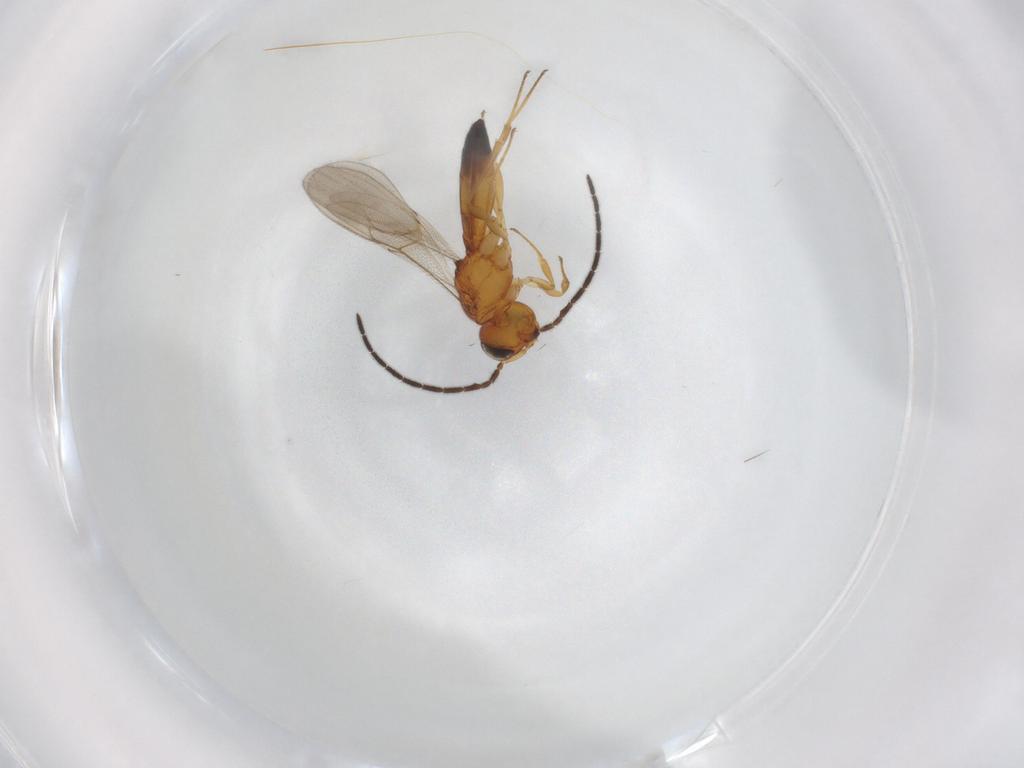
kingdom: Animalia
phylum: Arthropoda
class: Insecta
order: Hymenoptera
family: Scelionidae
